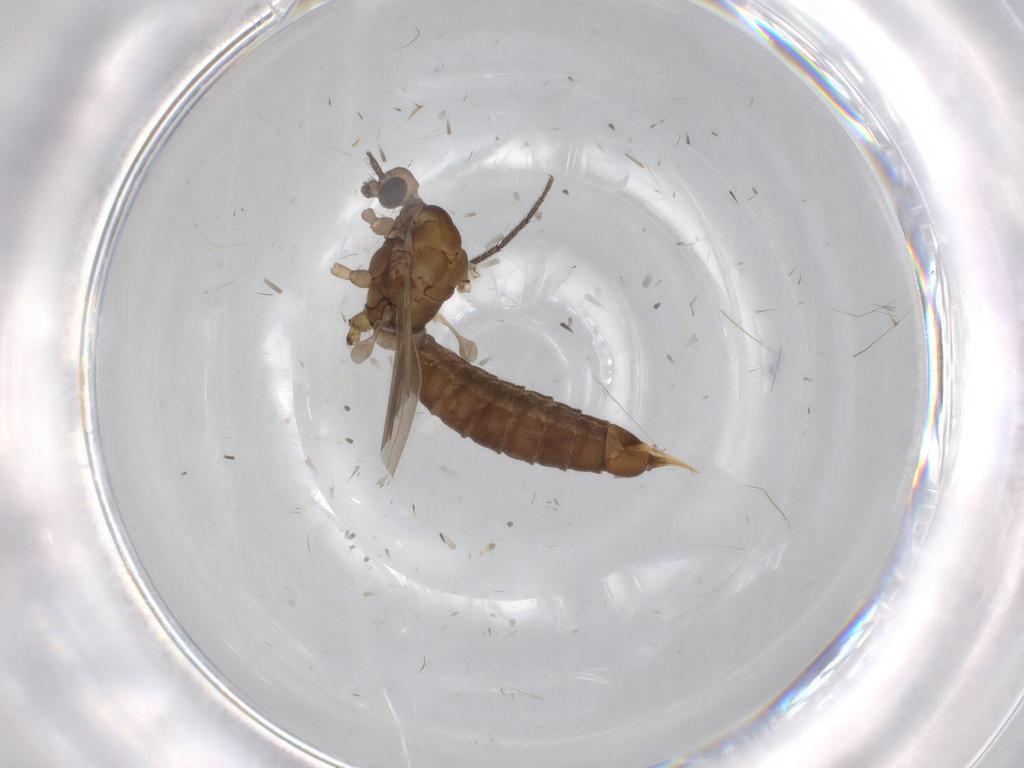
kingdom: Animalia
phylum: Arthropoda
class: Insecta
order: Diptera
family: Limoniidae
